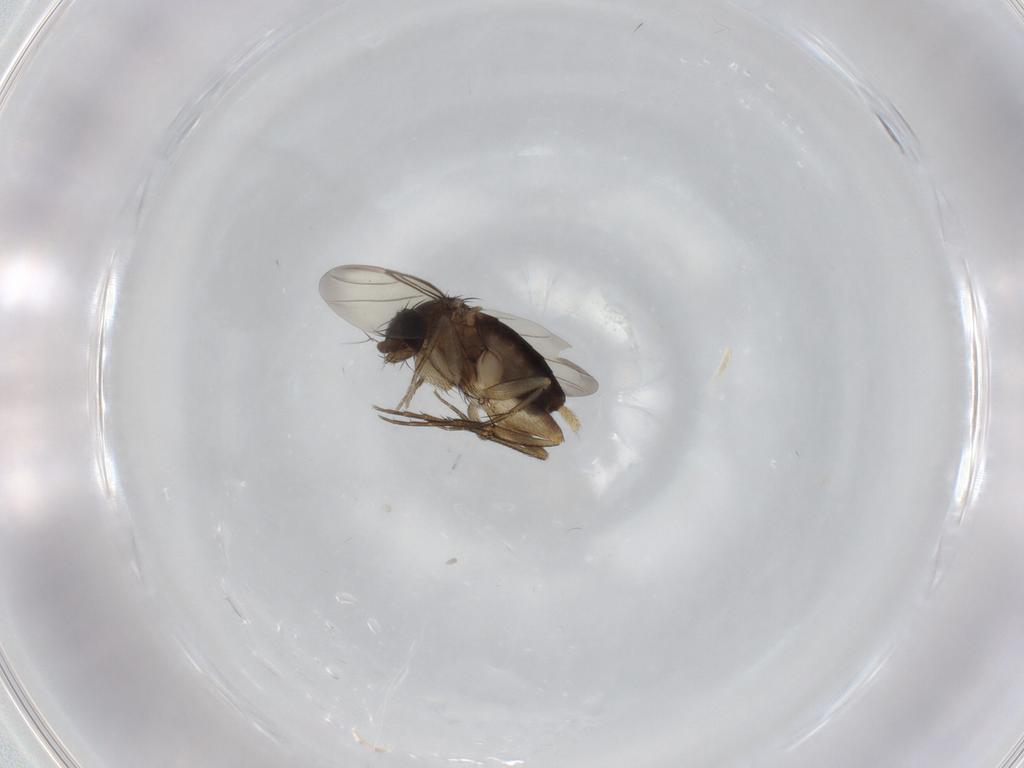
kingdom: Animalia
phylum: Arthropoda
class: Insecta
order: Diptera
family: Phoridae
